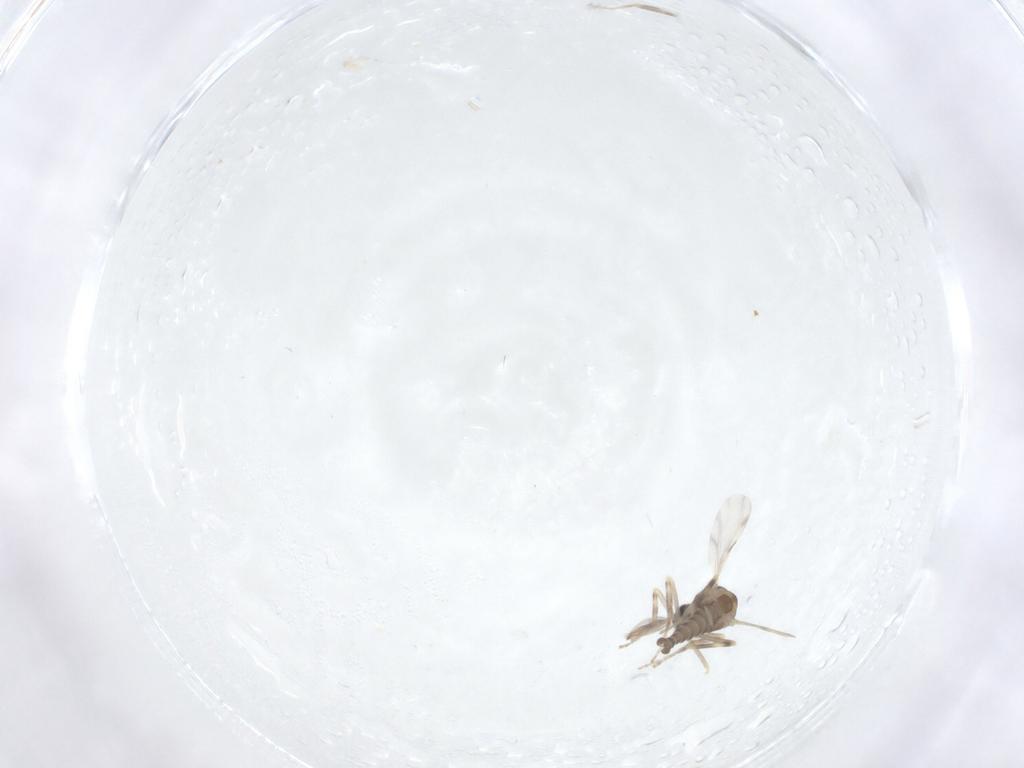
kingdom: Animalia
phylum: Arthropoda
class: Insecta
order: Diptera
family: Ceratopogonidae
